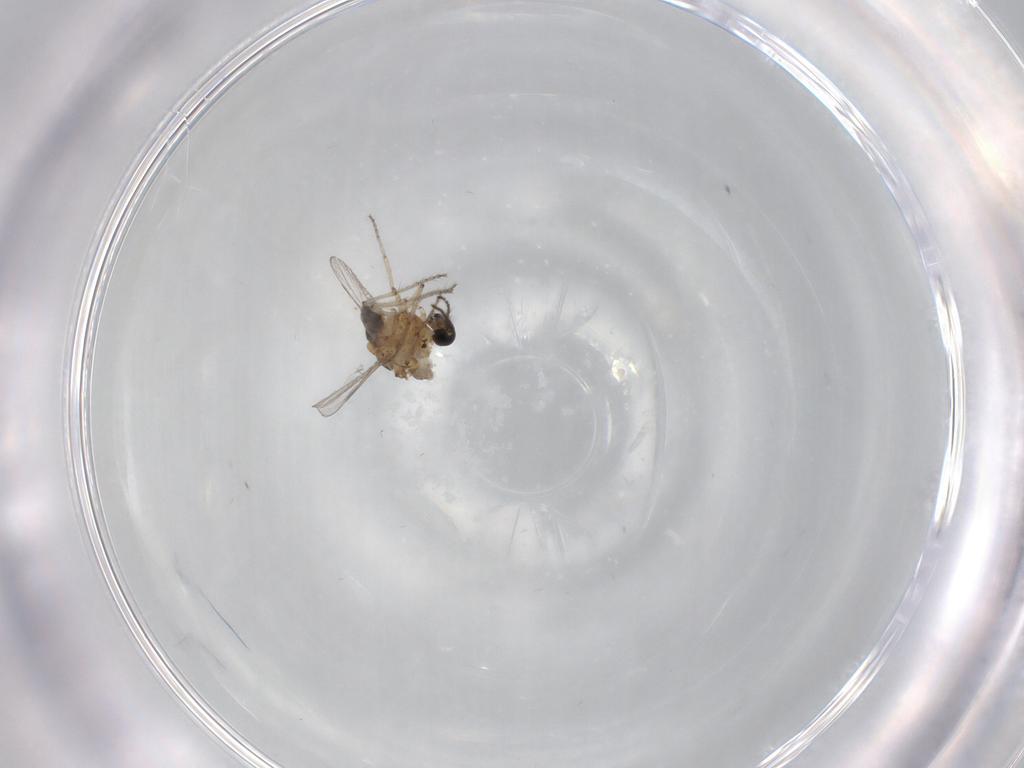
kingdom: Animalia
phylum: Arthropoda
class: Insecta
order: Diptera
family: Ceratopogonidae
